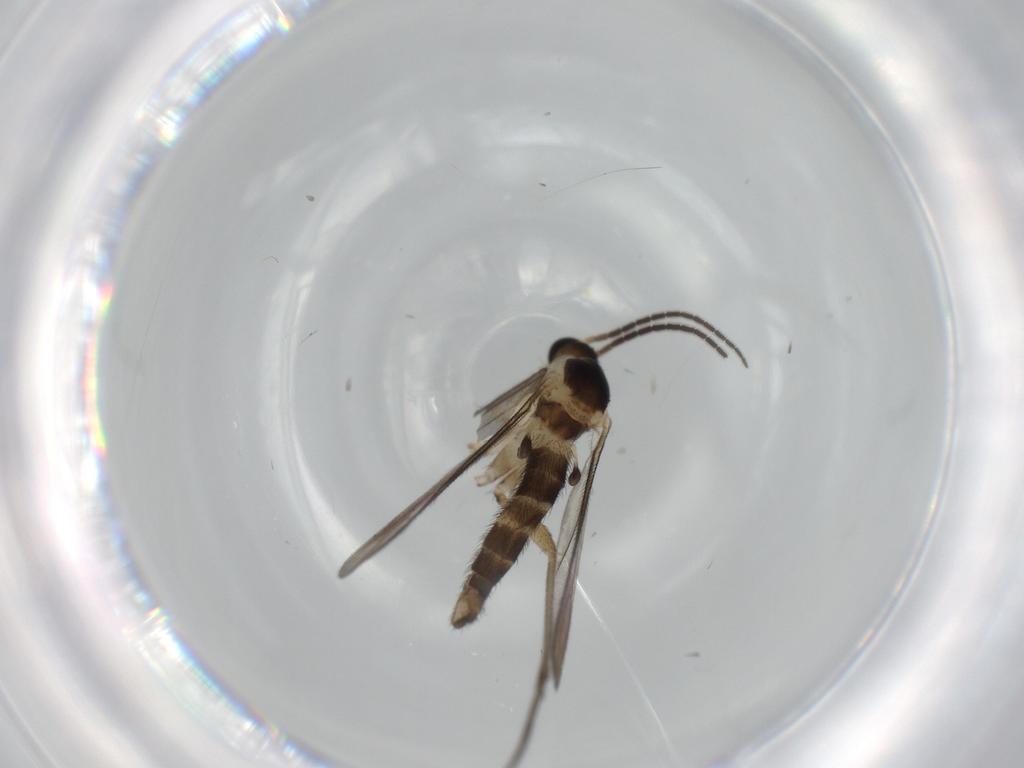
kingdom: Animalia
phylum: Arthropoda
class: Insecta
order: Diptera
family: Sciaridae
